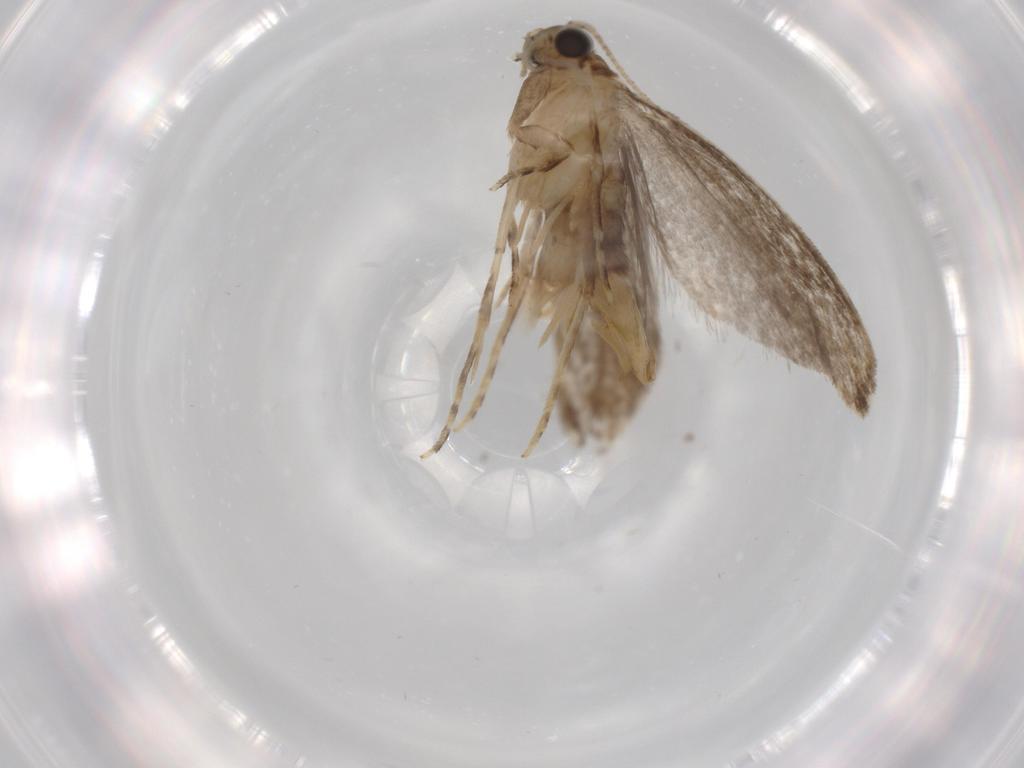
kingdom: Animalia
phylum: Arthropoda
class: Insecta
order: Lepidoptera
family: Tineidae
